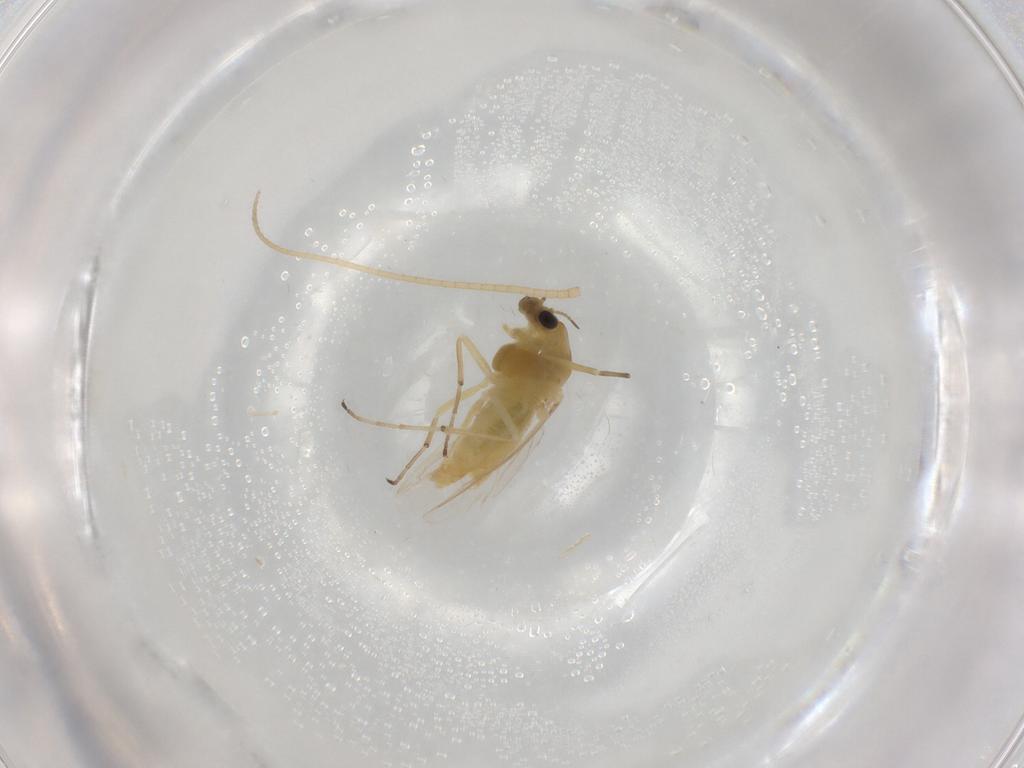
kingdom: Animalia
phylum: Arthropoda
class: Insecta
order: Diptera
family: Chironomidae
